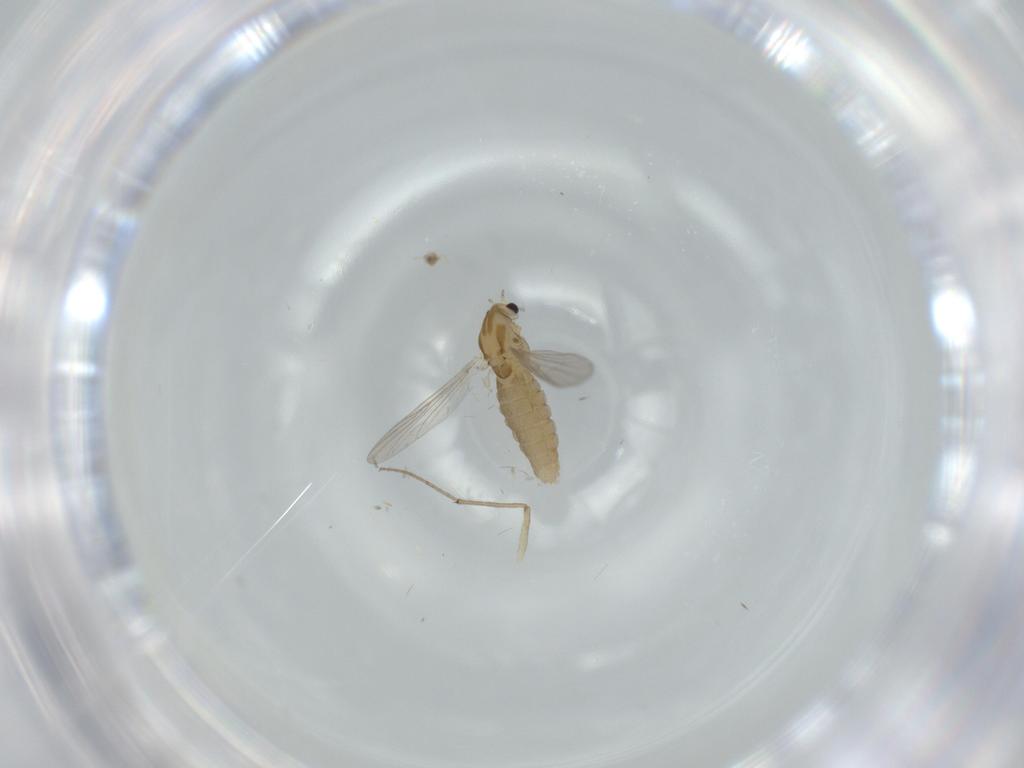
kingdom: Animalia
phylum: Arthropoda
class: Insecta
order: Diptera
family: Chironomidae
